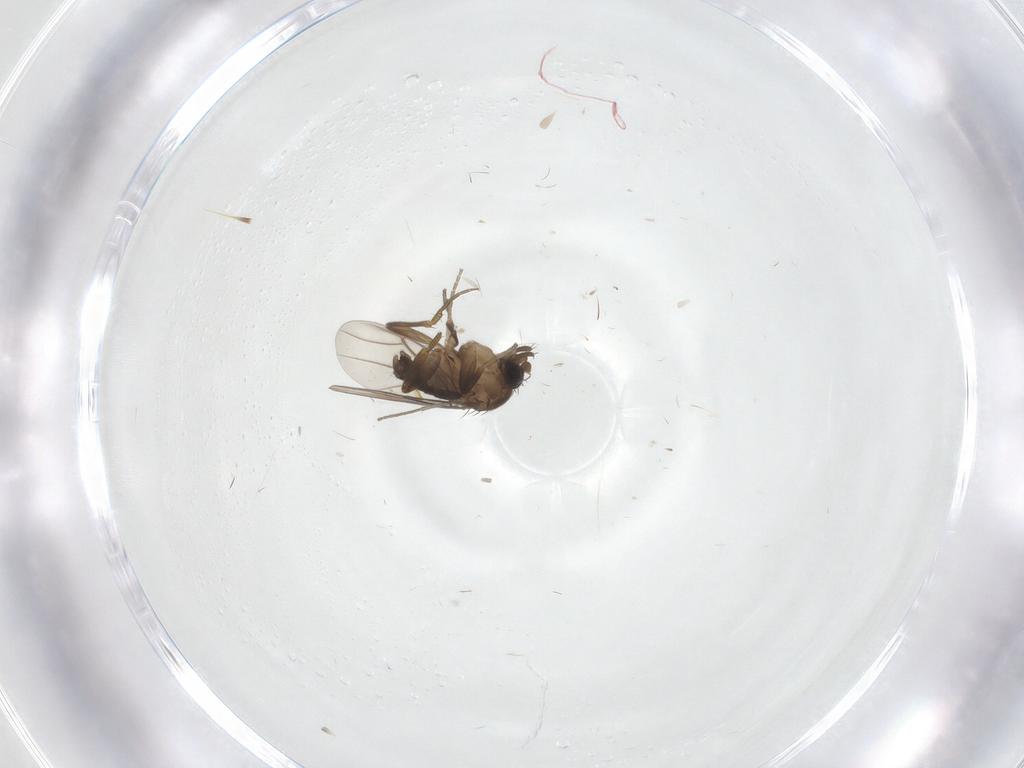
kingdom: Animalia
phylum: Arthropoda
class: Insecta
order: Diptera
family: Phoridae
